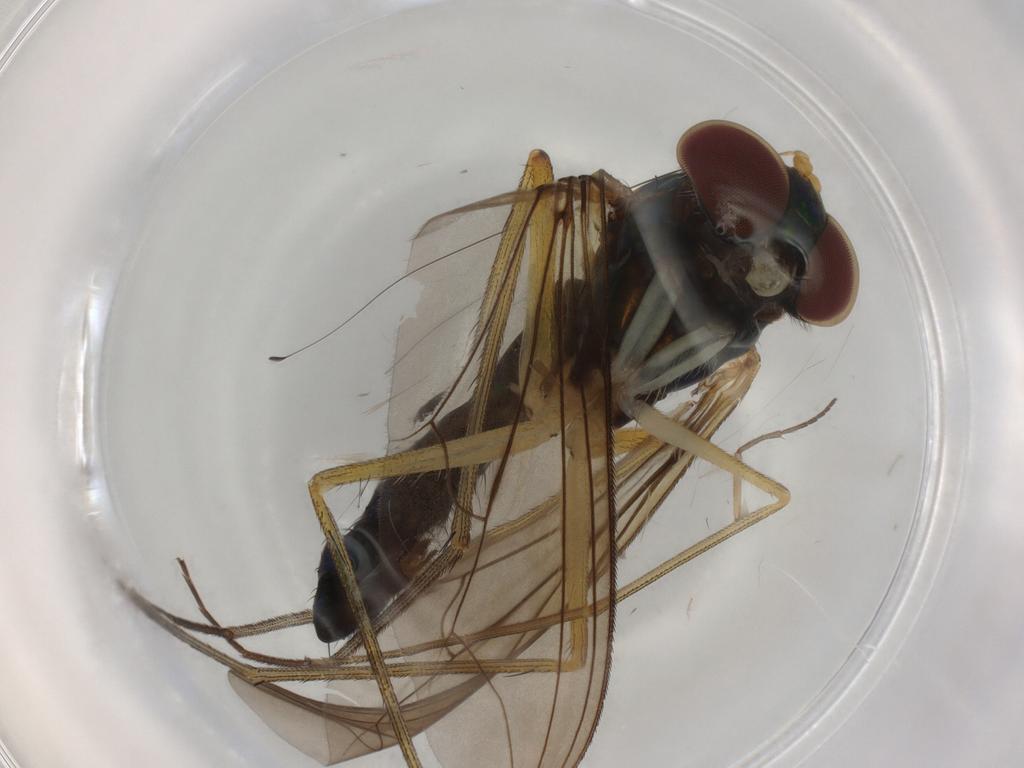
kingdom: Animalia
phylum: Arthropoda
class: Insecta
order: Diptera
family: Dolichopodidae
